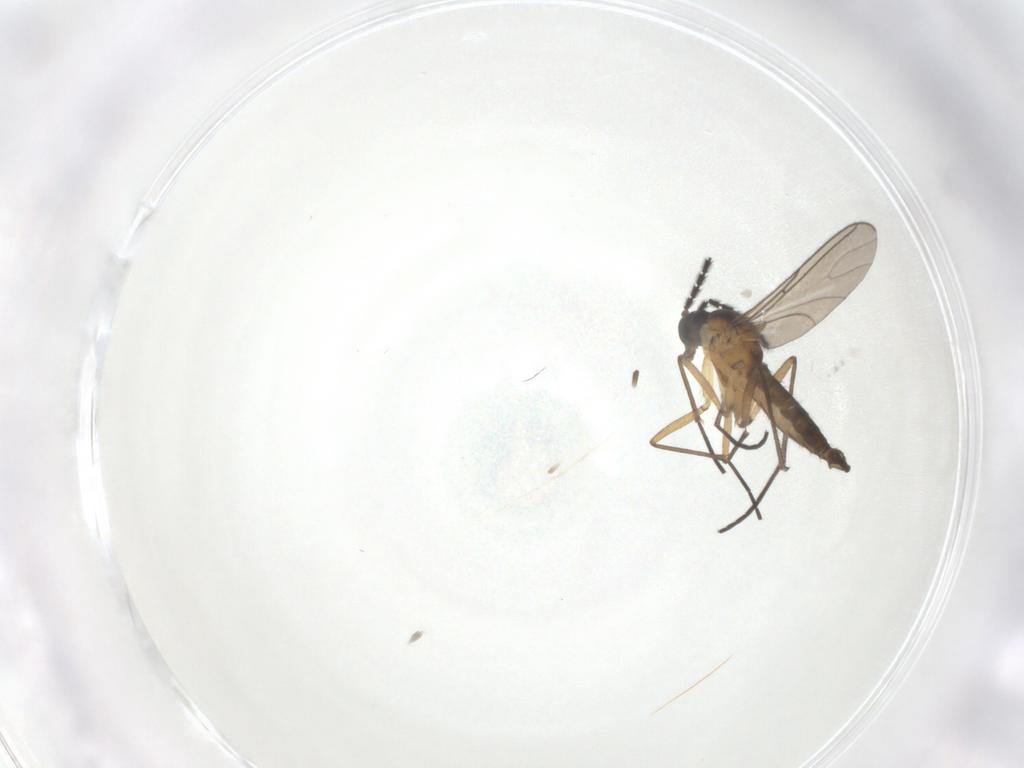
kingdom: Animalia
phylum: Arthropoda
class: Insecta
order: Diptera
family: Sciaridae
